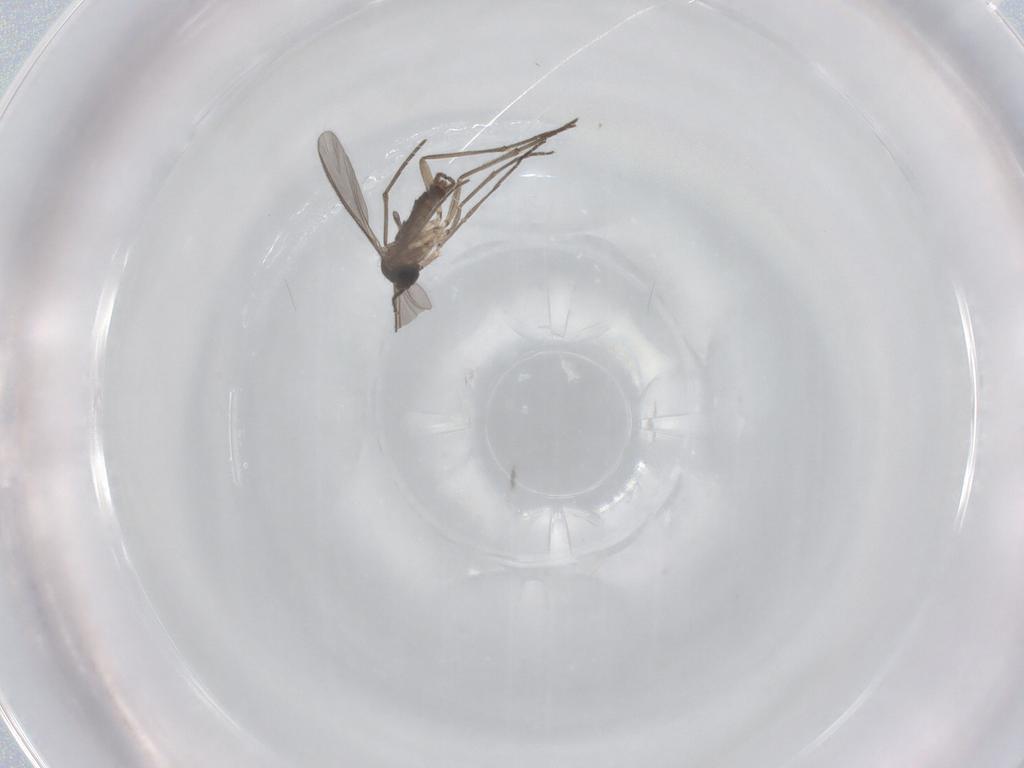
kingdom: Animalia
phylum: Arthropoda
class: Insecta
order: Diptera
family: Sciaridae
